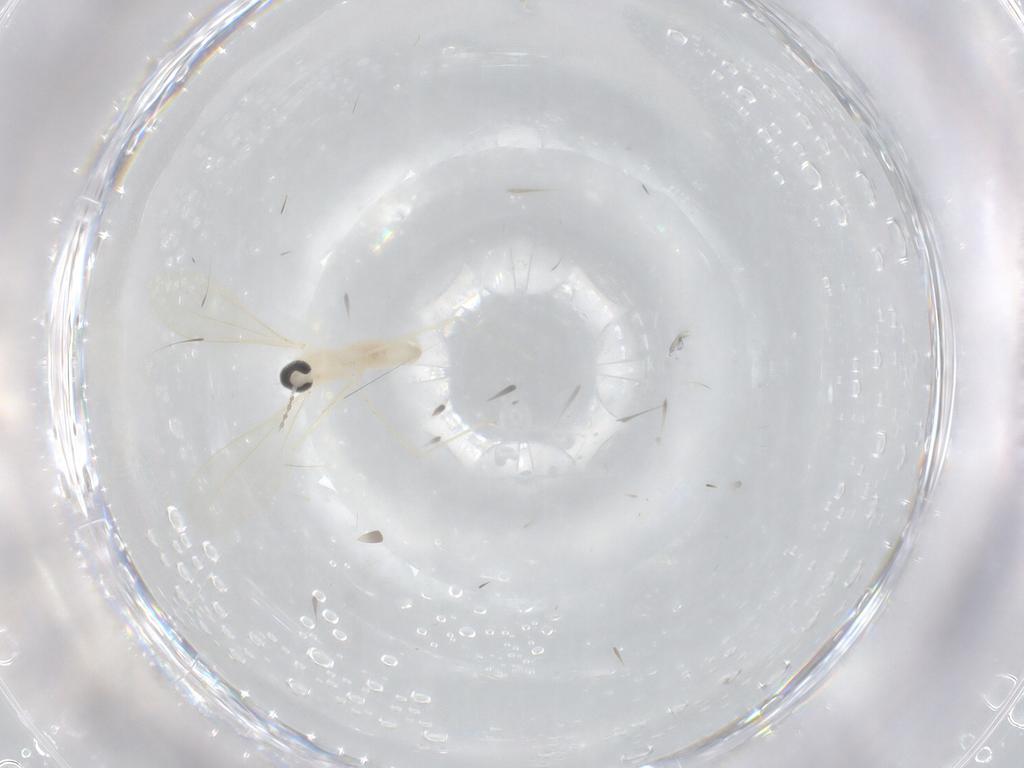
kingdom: Animalia
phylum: Arthropoda
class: Insecta
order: Diptera
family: Cecidomyiidae
